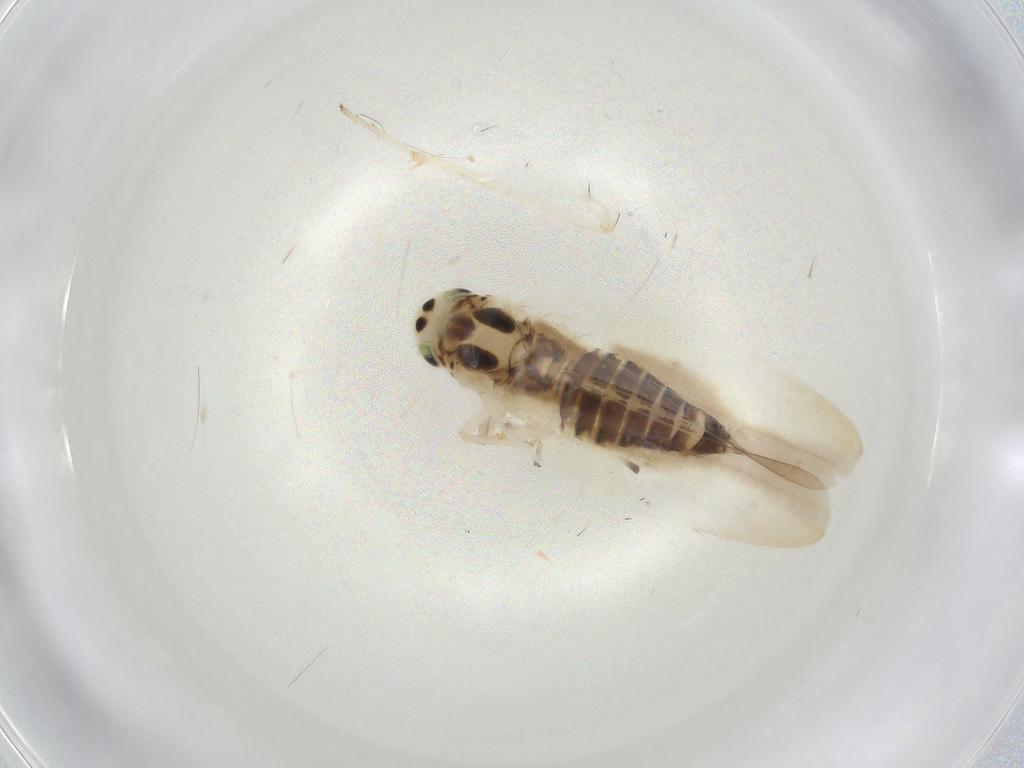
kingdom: Animalia
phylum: Arthropoda
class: Insecta
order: Hemiptera
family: Cicadellidae
